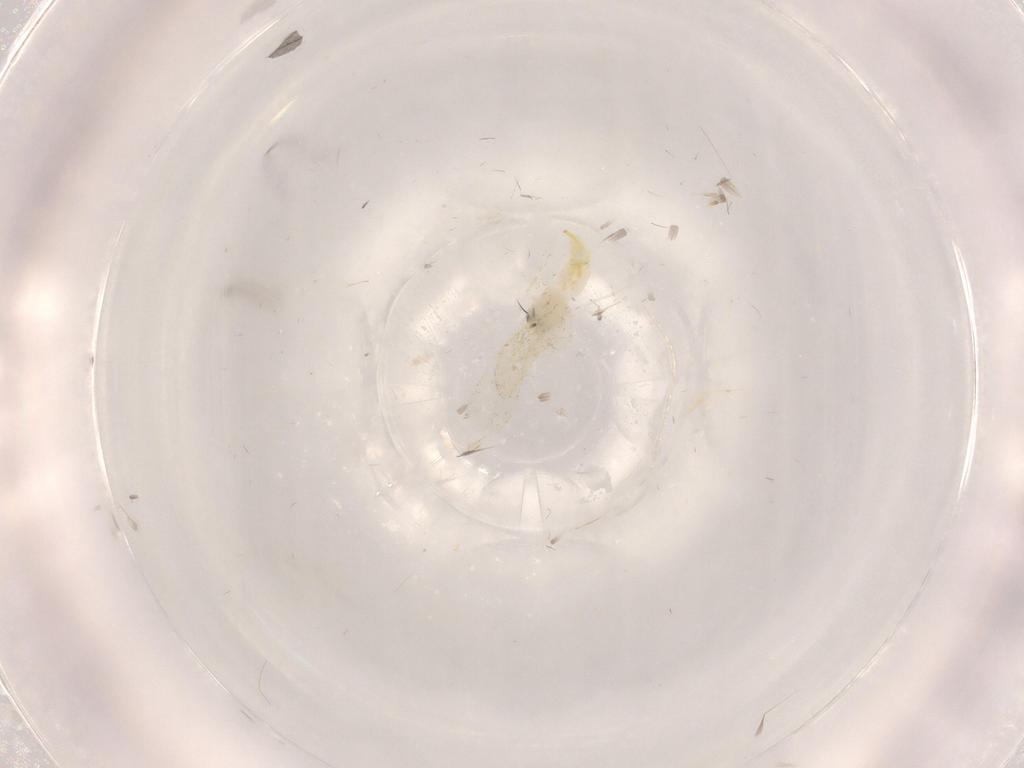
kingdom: Animalia
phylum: Arthropoda
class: Insecta
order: Hemiptera
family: Aleyrodidae
